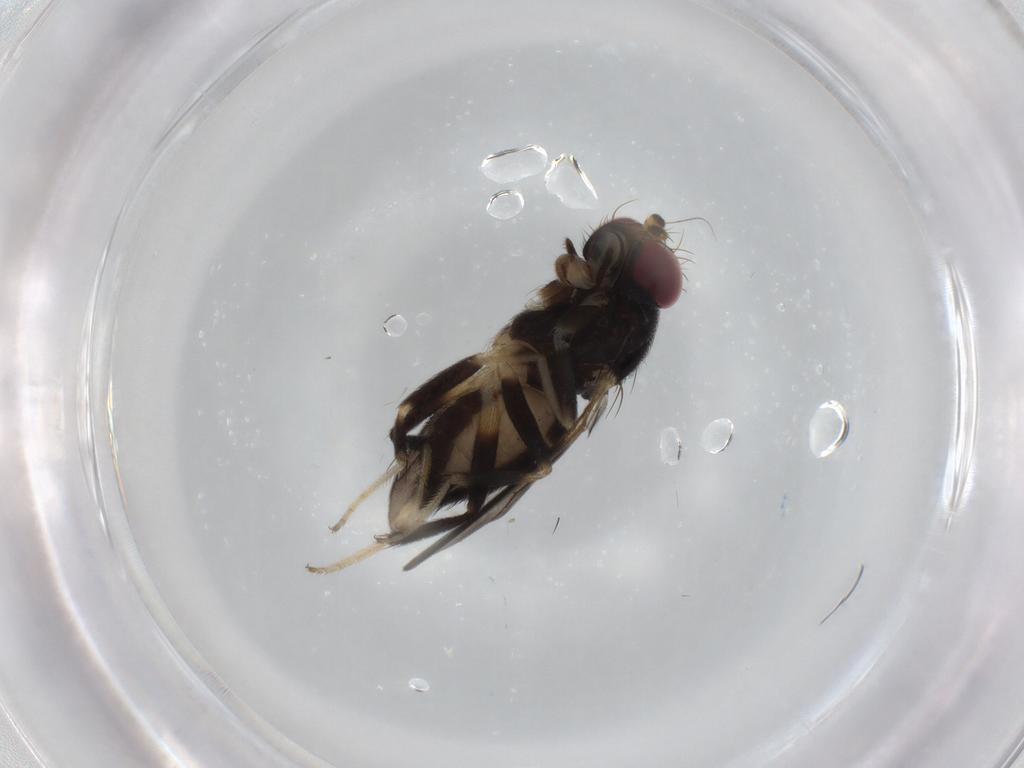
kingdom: Animalia
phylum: Arthropoda
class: Insecta
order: Diptera
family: Clusiidae
